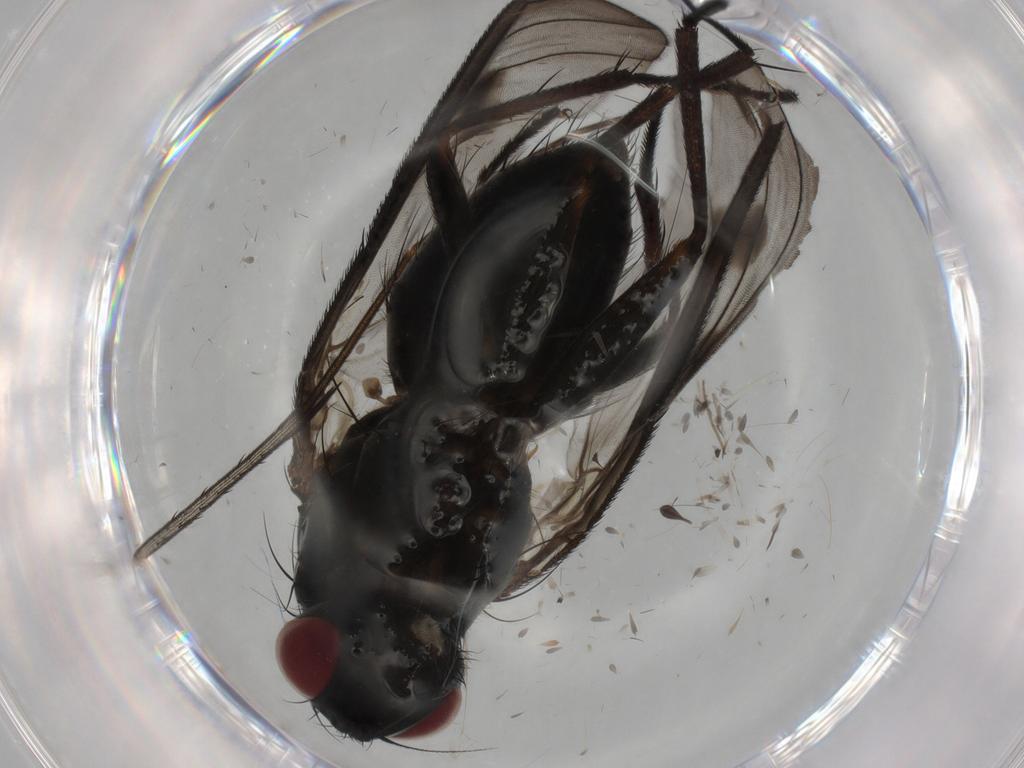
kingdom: Animalia
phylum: Arthropoda
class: Insecta
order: Diptera
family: Muscidae
